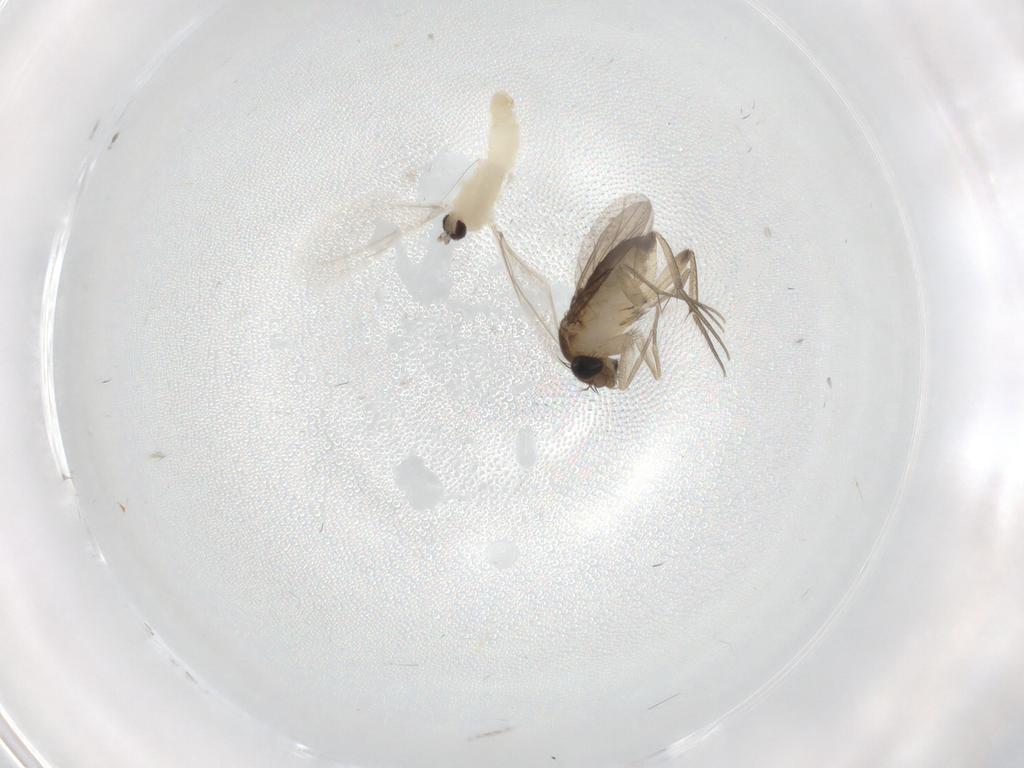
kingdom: Animalia
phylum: Arthropoda
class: Insecta
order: Diptera
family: Phoridae
